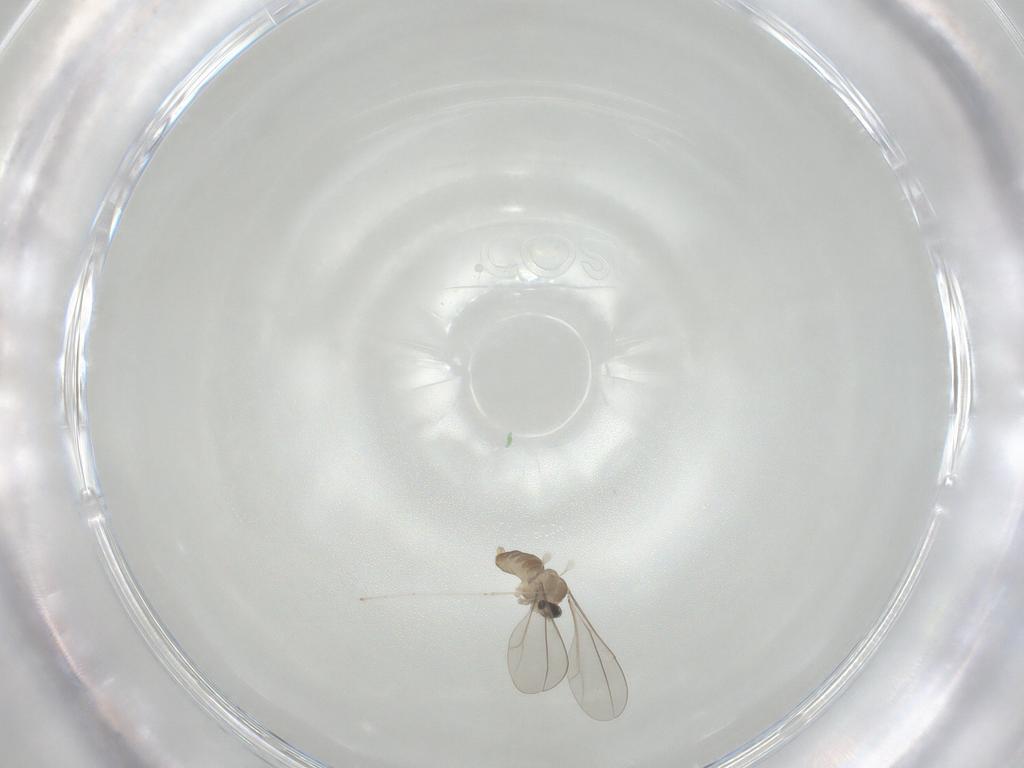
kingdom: Animalia
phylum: Arthropoda
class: Insecta
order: Diptera
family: Cecidomyiidae
